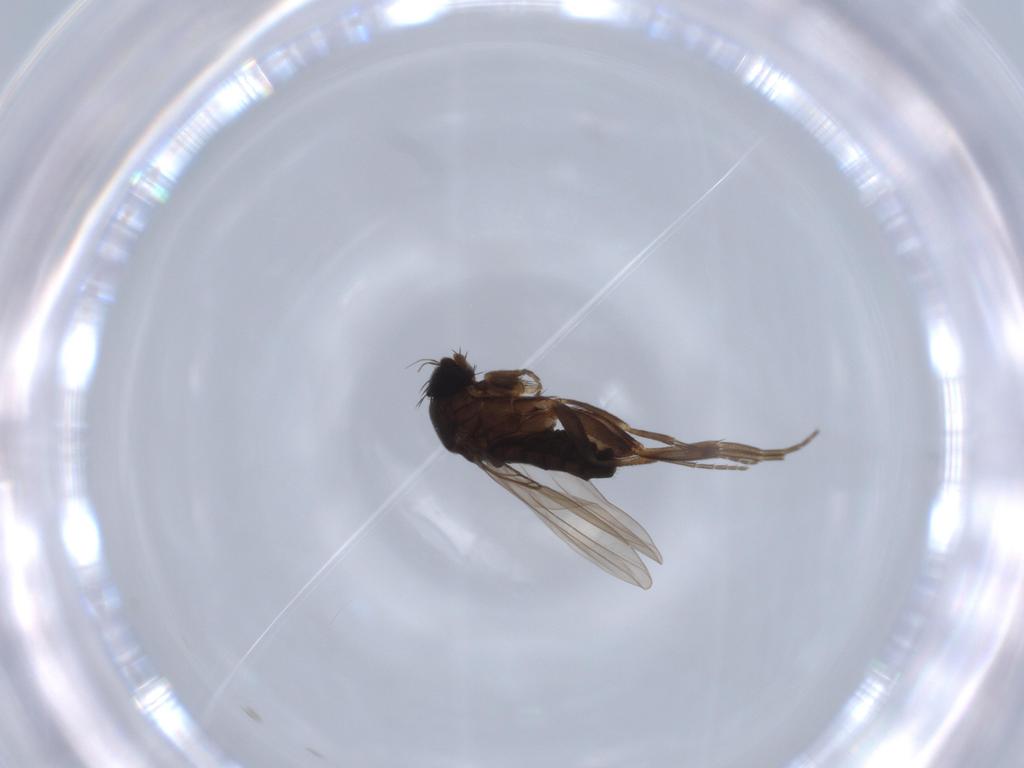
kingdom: Animalia
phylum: Arthropoda
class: Insecta
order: Diptera
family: Phoridae
